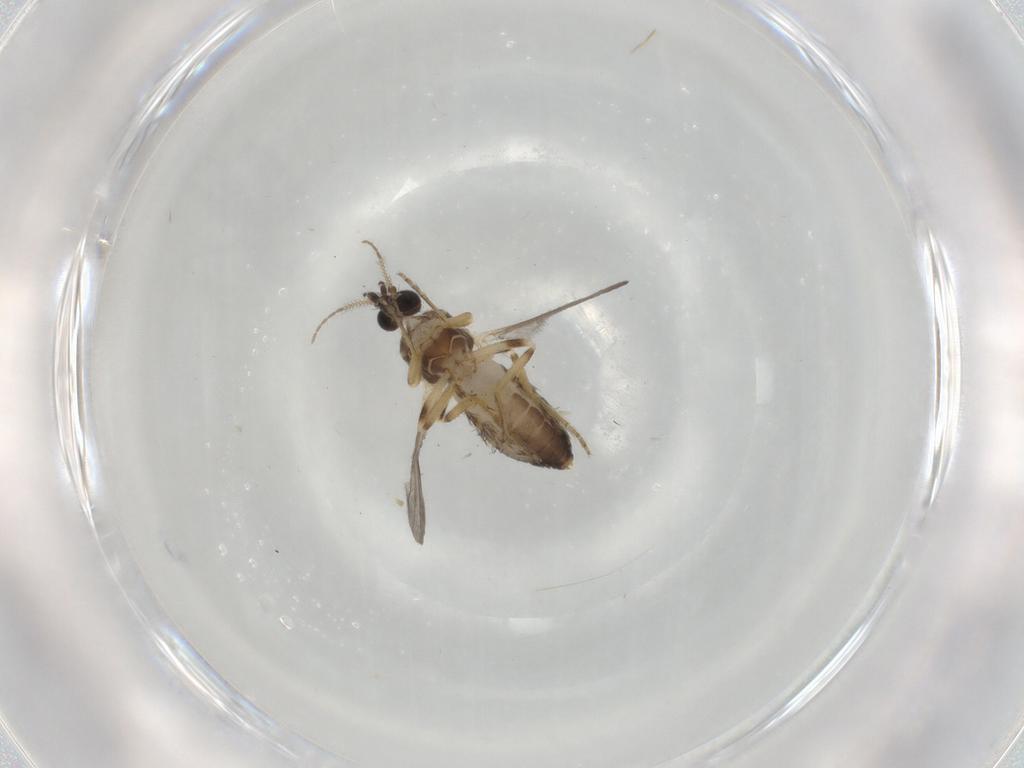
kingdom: Animalia
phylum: Arthropoda
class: Insecta
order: Diptera
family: Ceratopogonidae
